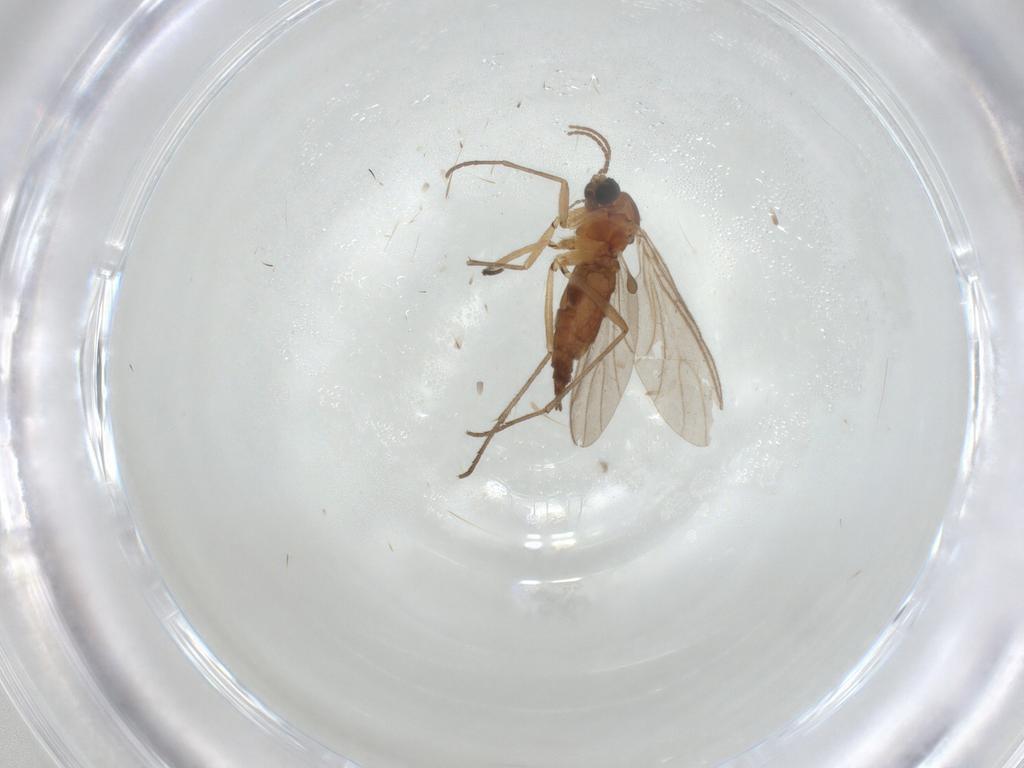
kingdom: Animalia
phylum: Arthropoda
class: Insecta
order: Diptera
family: Sciaridae
